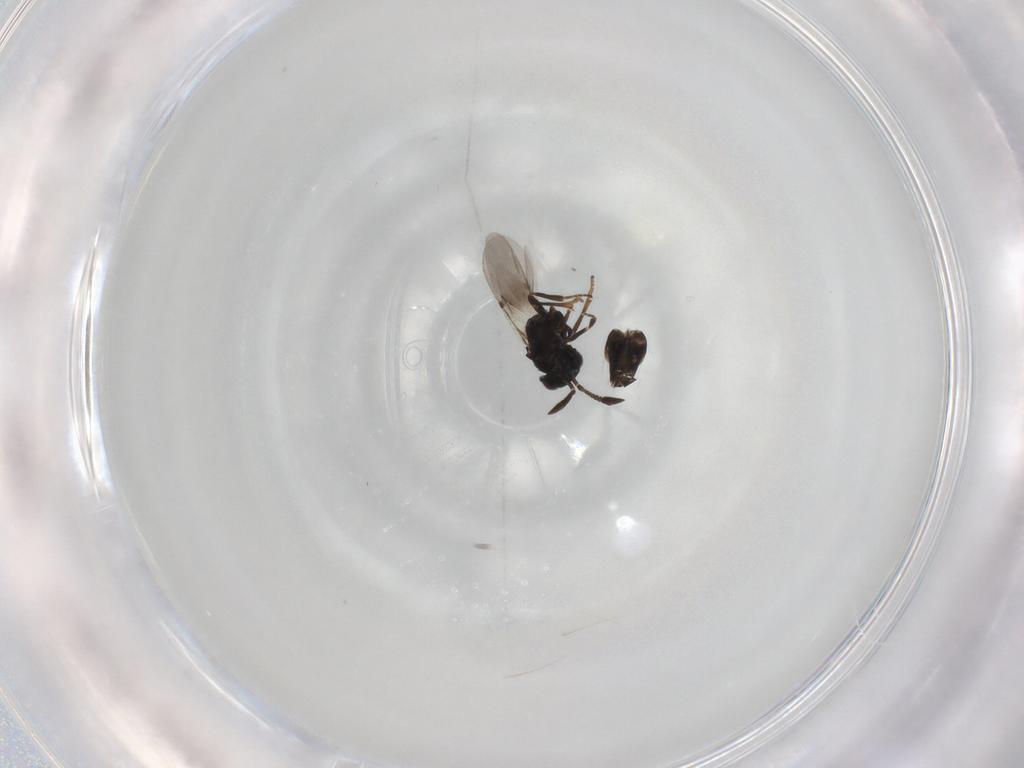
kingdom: Animalia
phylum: Arthropoda
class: Insecta
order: Hymenoptera
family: Encyrtidae
